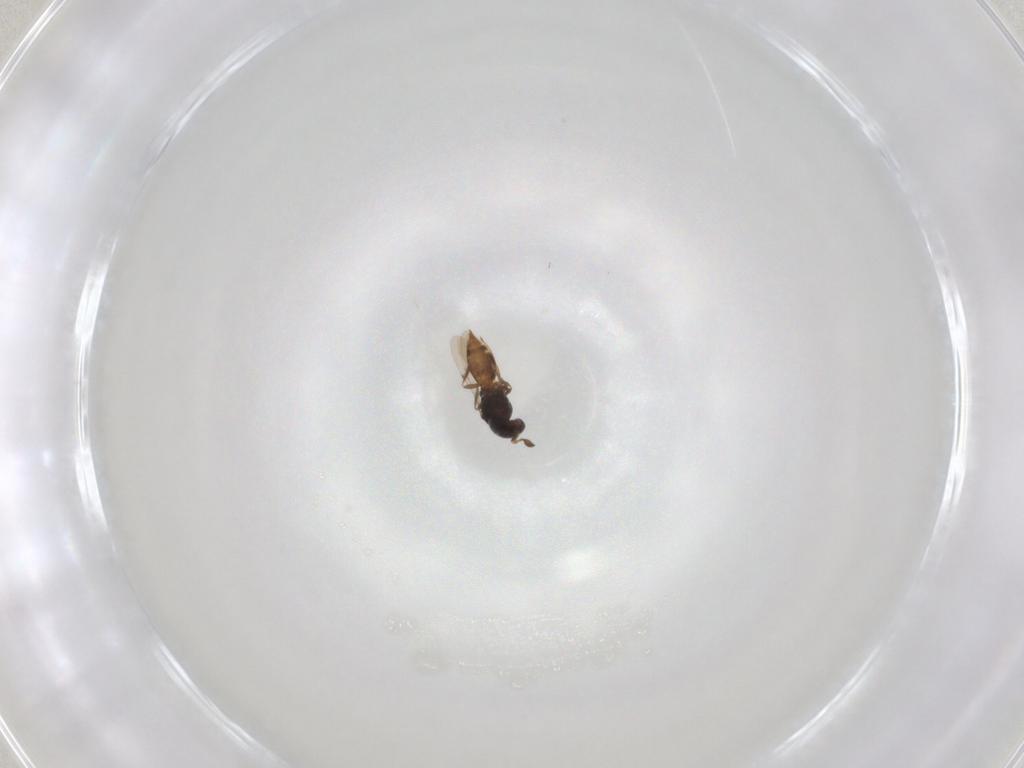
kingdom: Animalia
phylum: Arthropoda
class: Insecta
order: Hymenoptera
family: Scelionidae
